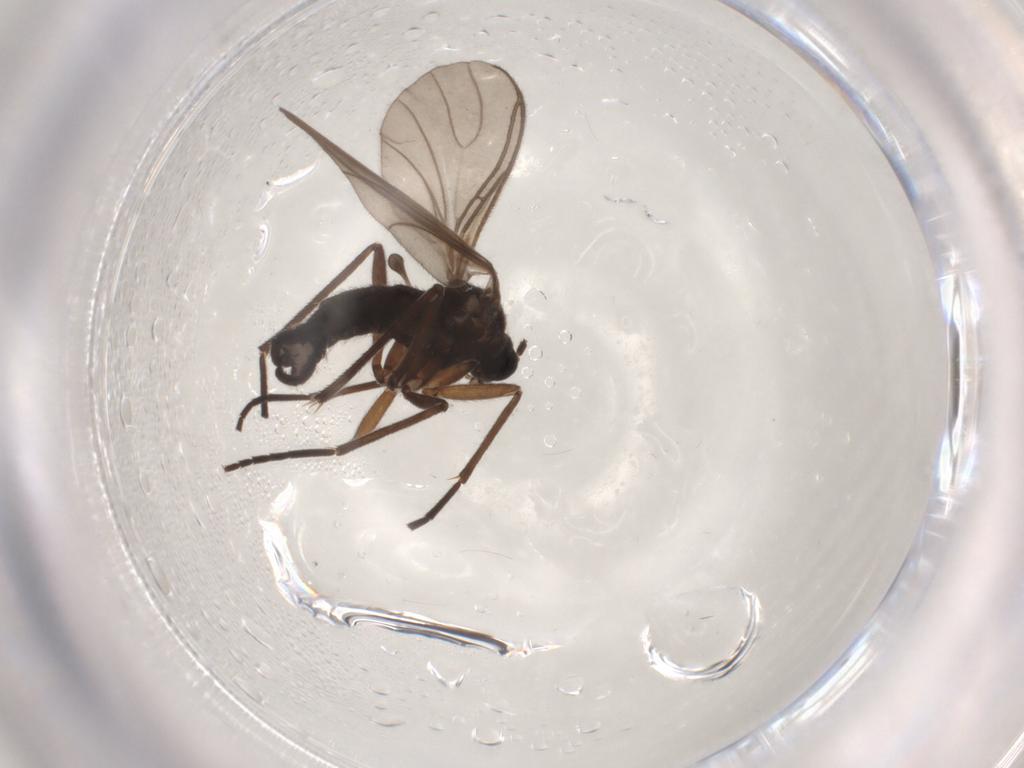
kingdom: Animalia
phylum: Arthropoda
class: Insecta
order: Diptera
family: Sciaridae
